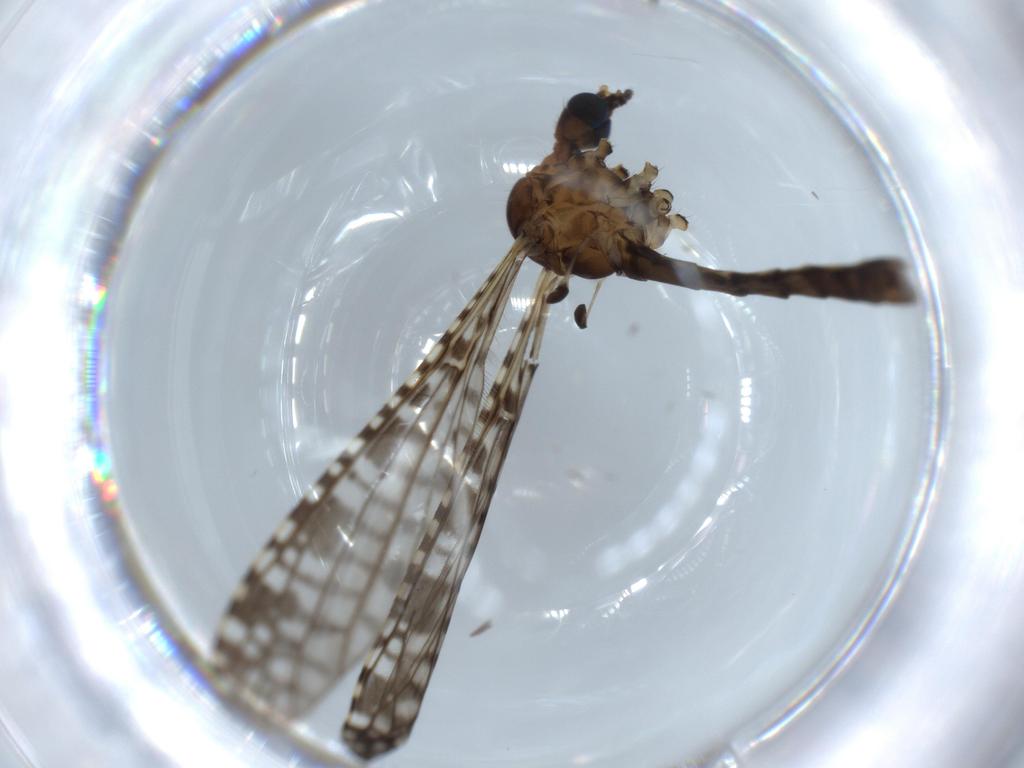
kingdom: Animalia
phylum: Arthropoda
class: Insecta
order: Diptera
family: Limoniidae
